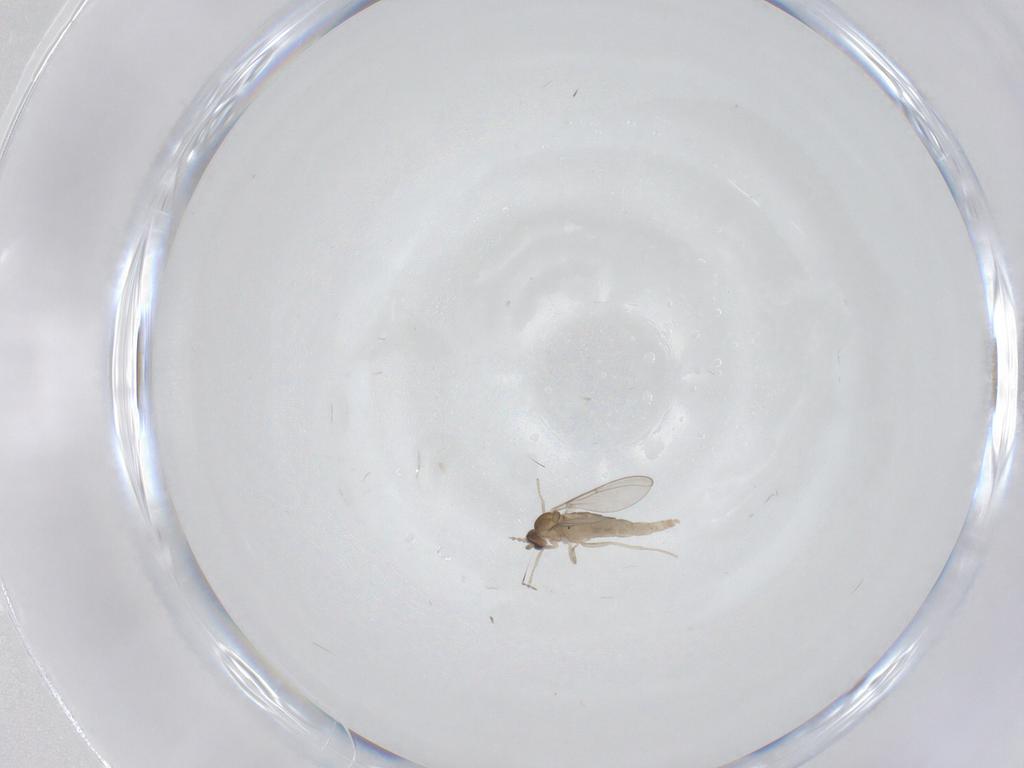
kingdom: Animalia
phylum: Arthropoda
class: Insecta
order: Diptera
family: Cecidomyiidae
